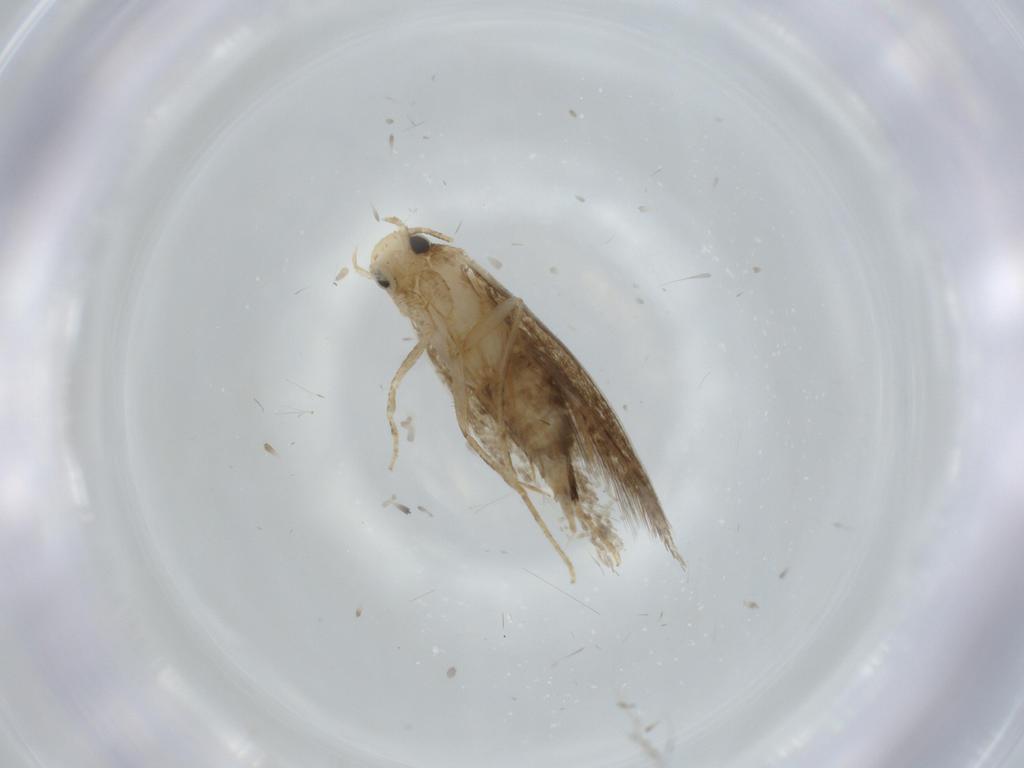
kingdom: Animalia
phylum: Arthropoda
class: Insecta
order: Lepidoptera
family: Tineidae
